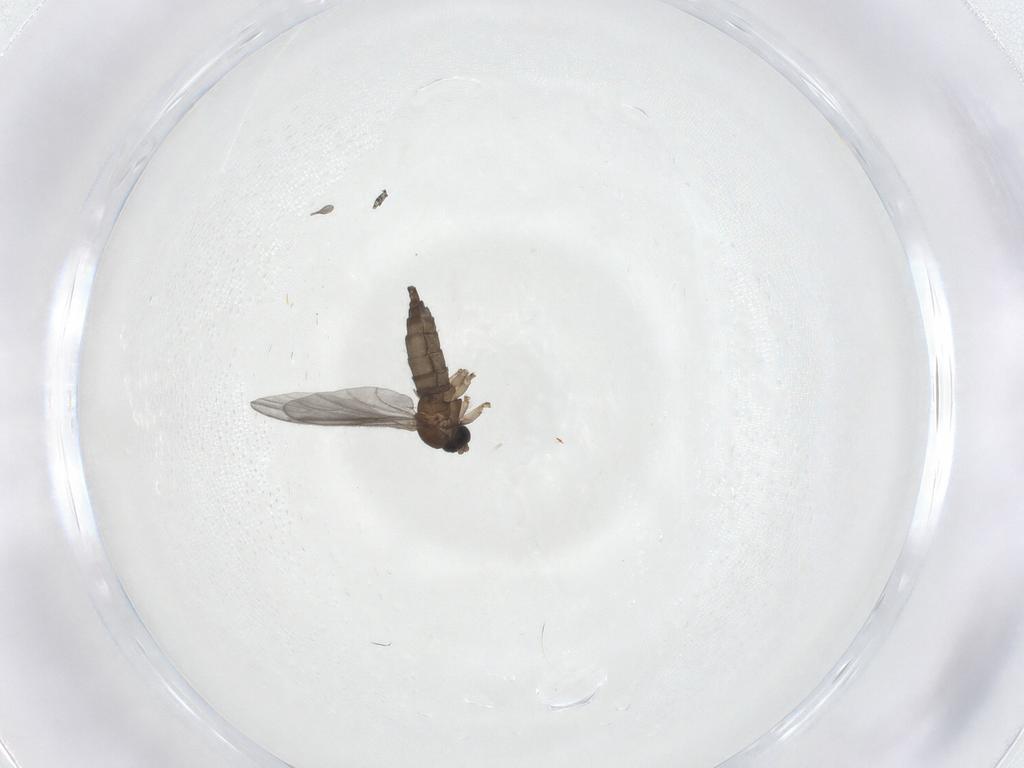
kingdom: Animalia
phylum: Arthropoda
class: Insecta
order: Diptera
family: Sciaridae
